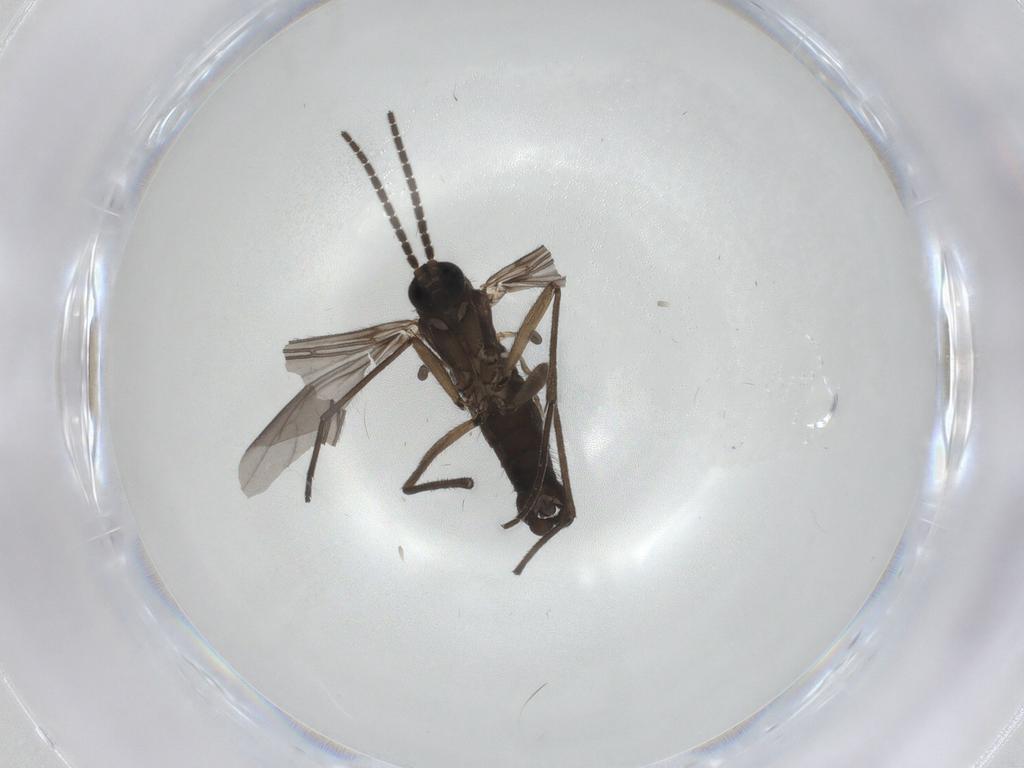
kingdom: Animalia
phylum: Arthropoda
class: Insecta
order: Diptera
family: Sciaridae
